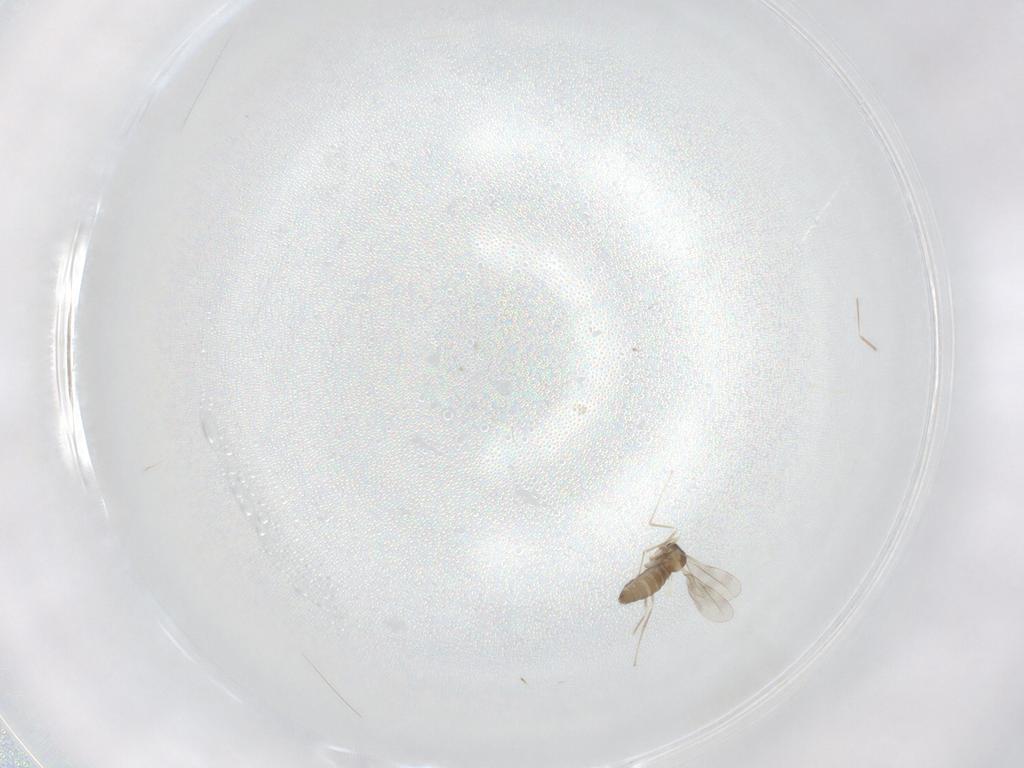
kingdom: Animalia
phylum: Arthropoda
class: Insecta
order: Diptera
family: Cecidomyiidae
